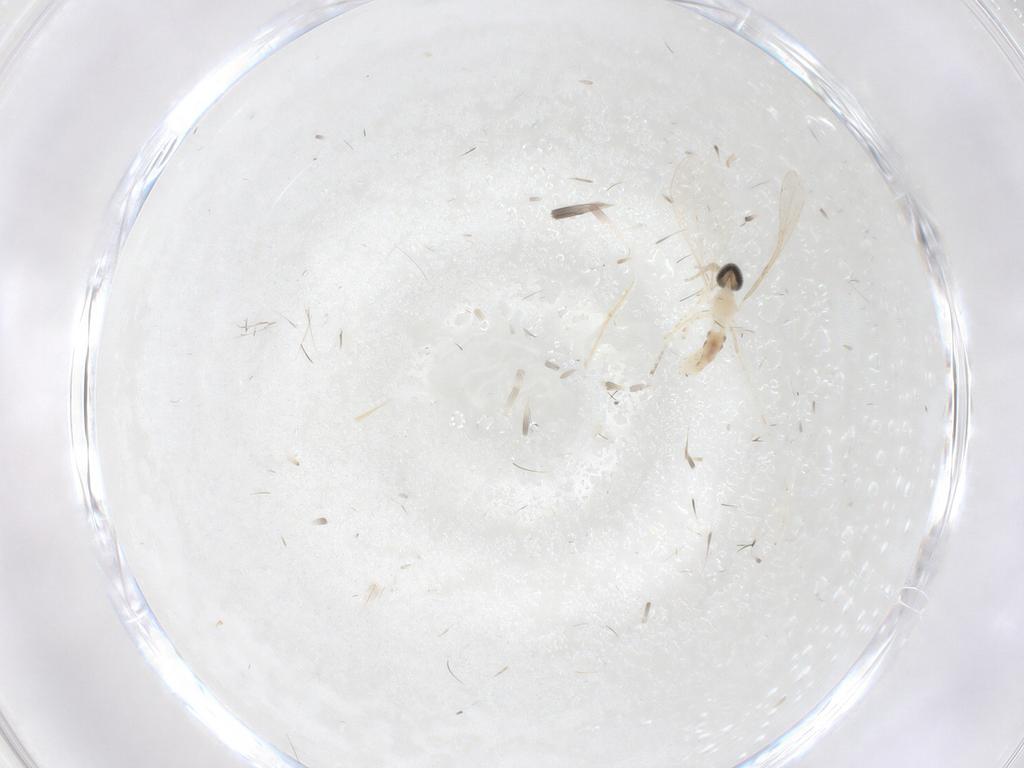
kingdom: Animalia
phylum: Arthropoda
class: Insecta
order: Diptera
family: Cecidomyiidae
